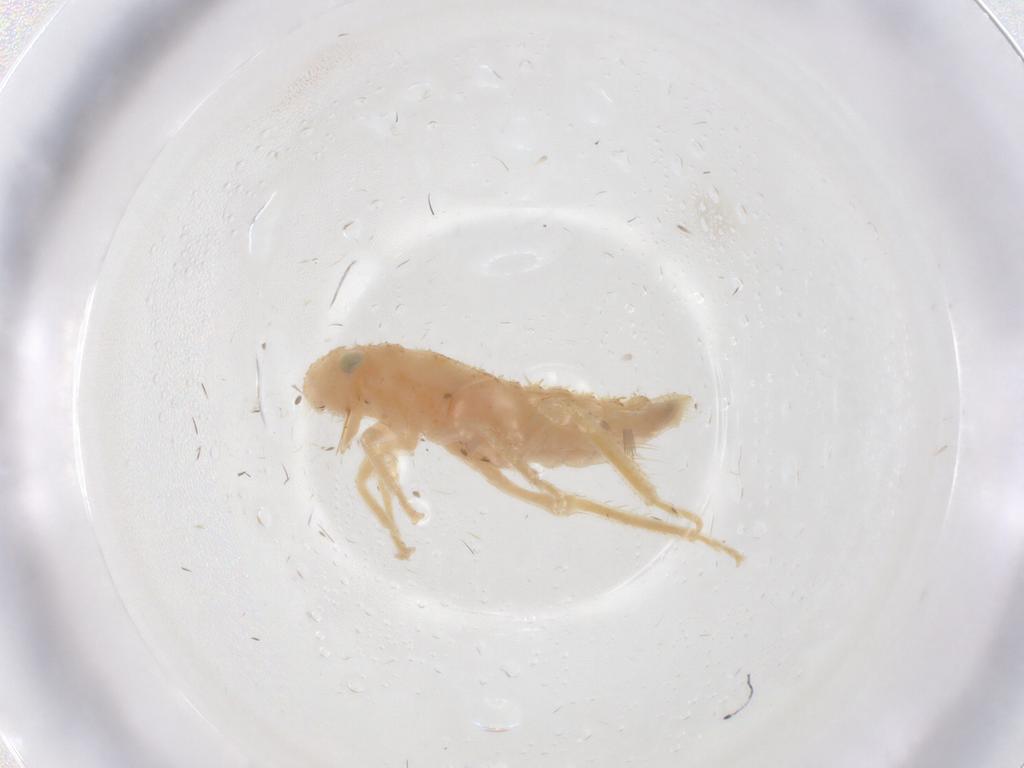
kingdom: Animalia
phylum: Arthropoda
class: Insecta
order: Hemiptera
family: Cicadellidae
